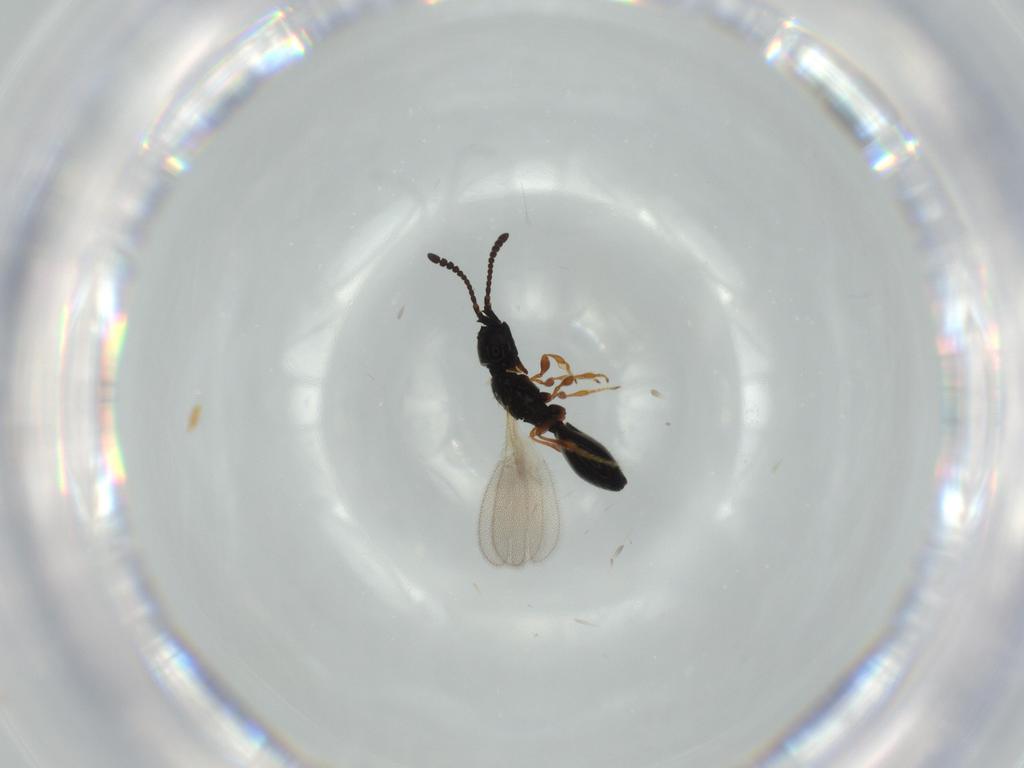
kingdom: Animalia
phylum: Arthropoda
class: Insecta
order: Hymenoptera
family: Diapriidae
